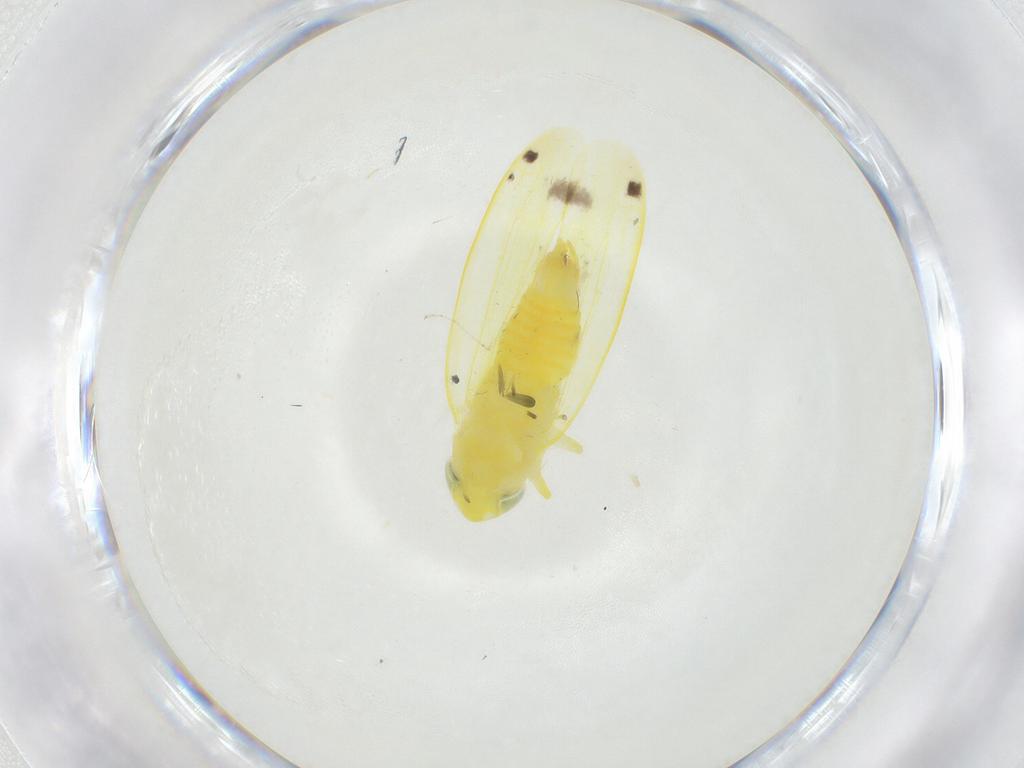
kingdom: Animalia
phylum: Arthropoda
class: Insecta
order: Hemiptera
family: Cicadellidae
